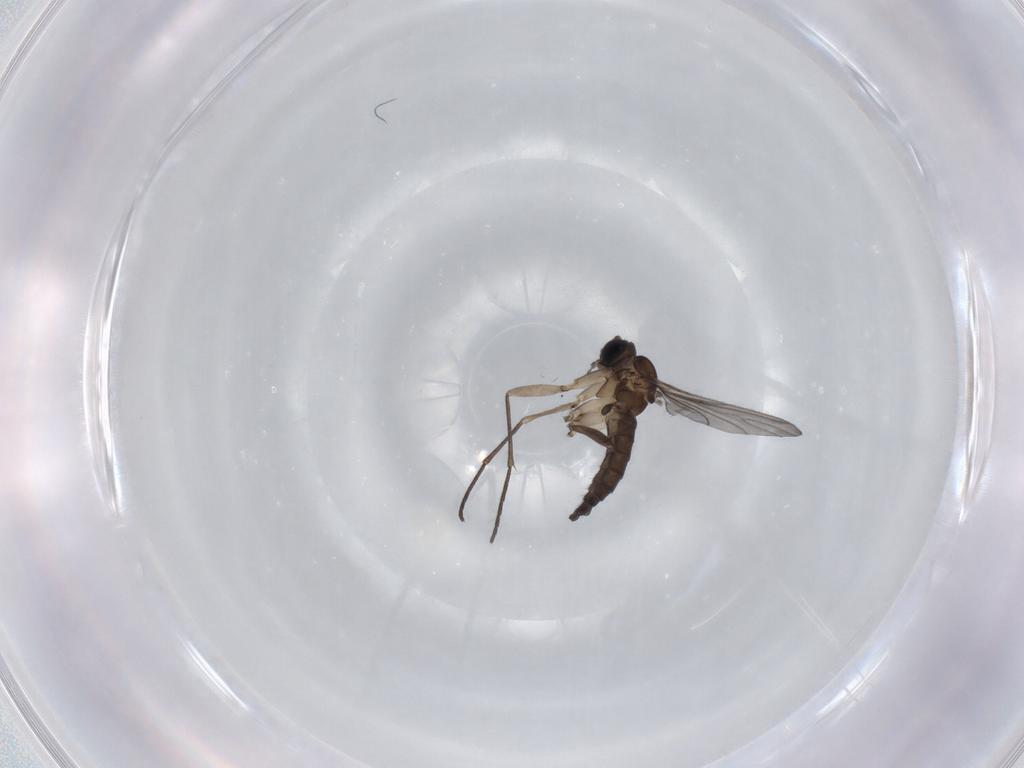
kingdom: Animalia
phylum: Arthropoda
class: Insecta
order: Diptera
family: Sciaridae
